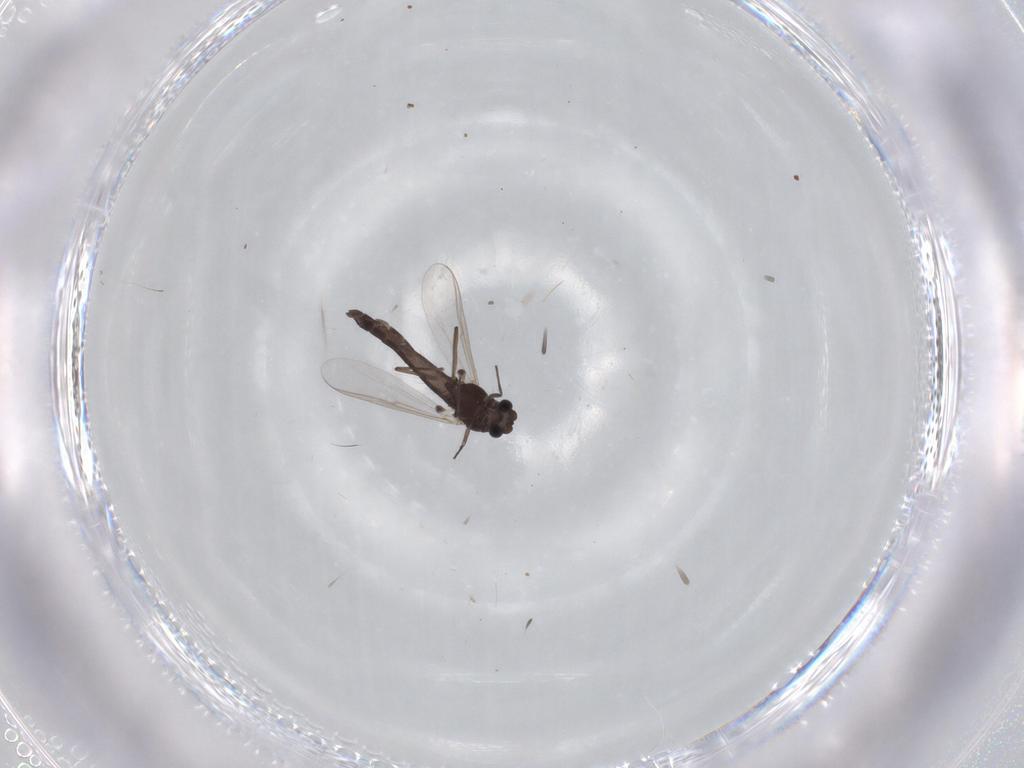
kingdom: Animalia
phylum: Arthropoda
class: Insecta
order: Diptera
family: Chironomidae
